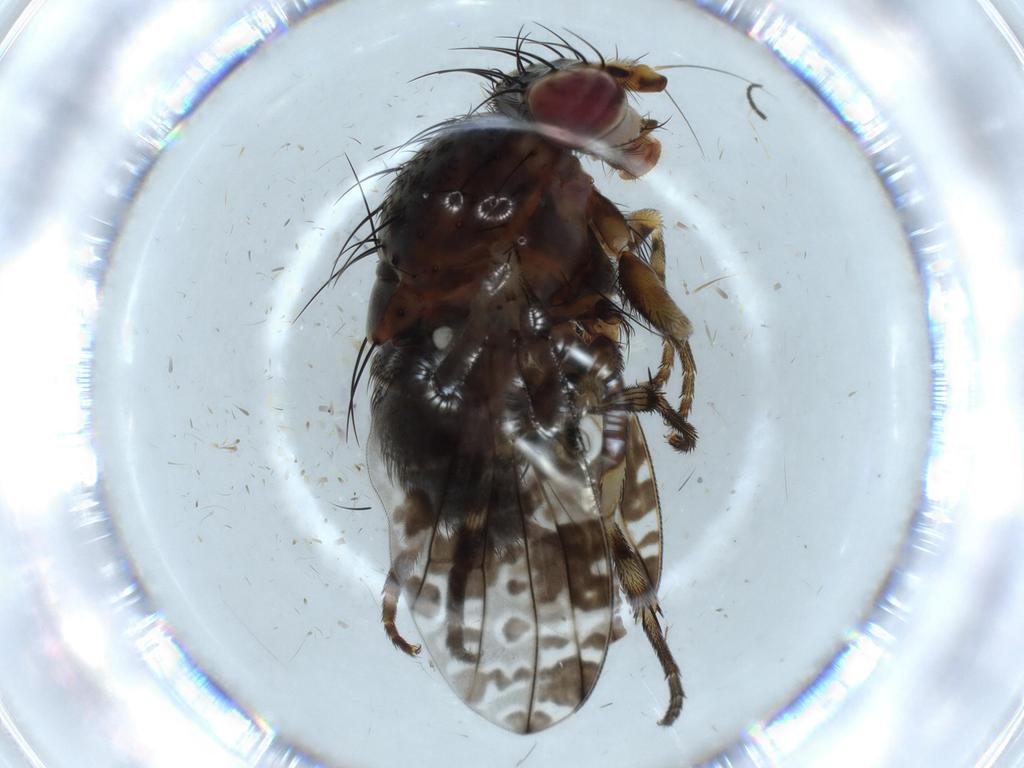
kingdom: Animalia
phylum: Arthropoda
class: Insecta
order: Diptera
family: Odiniidae
